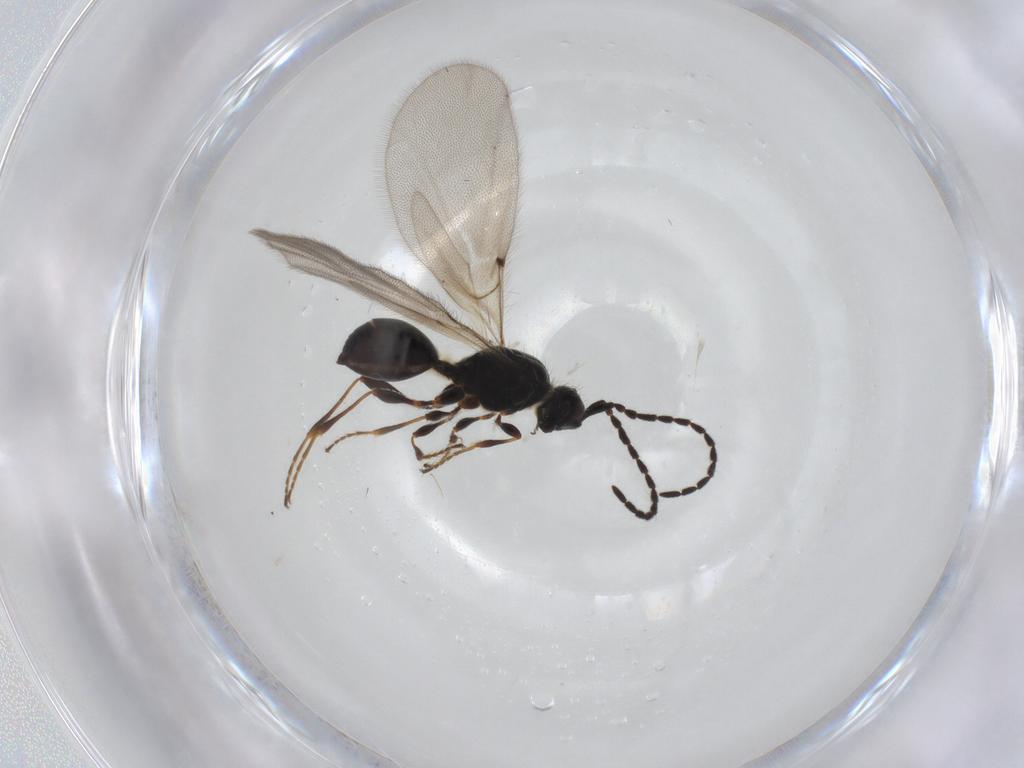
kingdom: Animalia
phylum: Arthropoda
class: Insecta
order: Hymenoptera
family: Diapriidae
